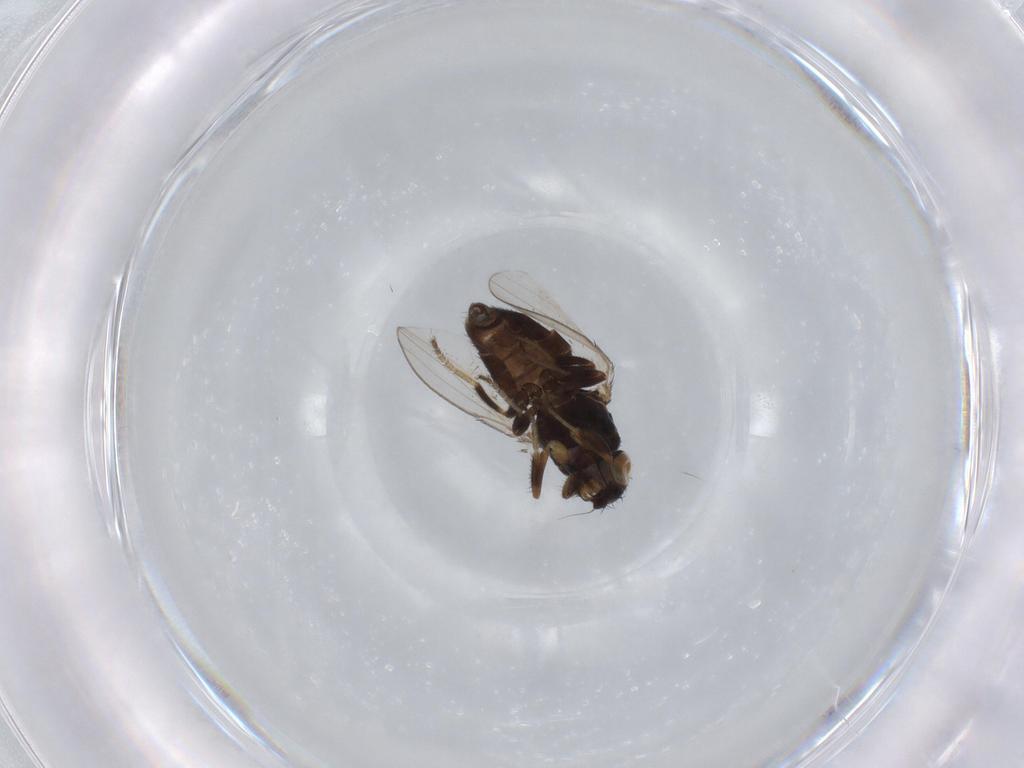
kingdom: Animalia
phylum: Arthropoda
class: Insecta
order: Diptera
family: Milichiidae
